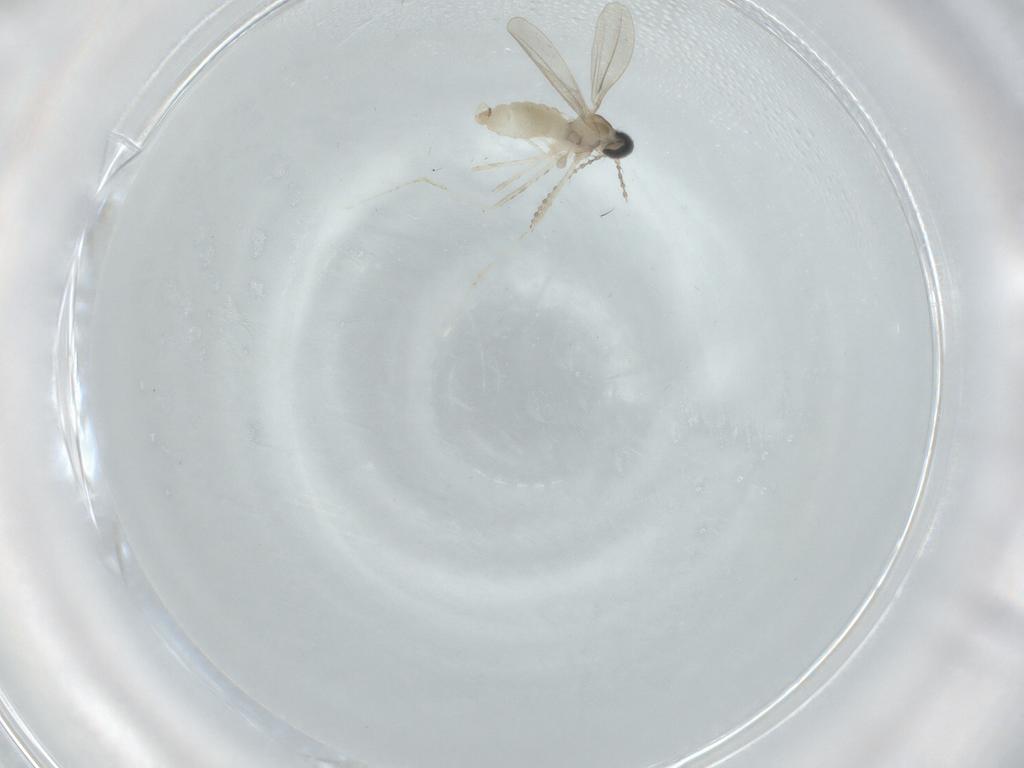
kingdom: Animalia
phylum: Arthropoda
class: Insecta
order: Diptera
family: Cecidomyiidae
